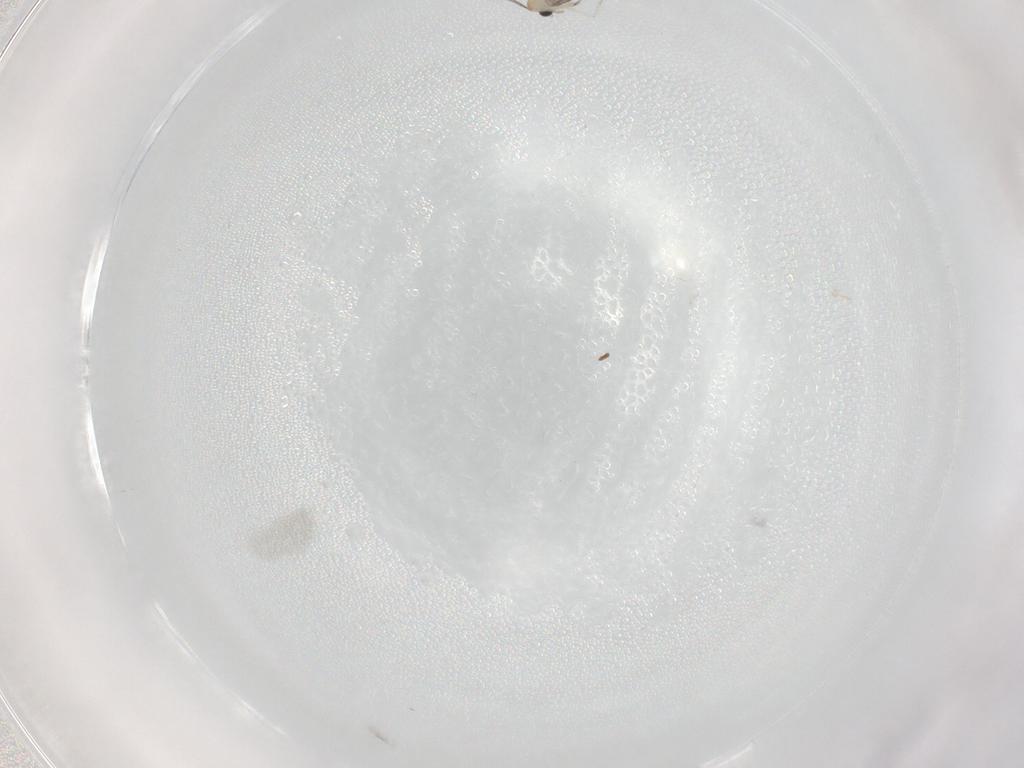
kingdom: Animalia
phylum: Arthropoda
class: Insecta
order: Diptera
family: Cecidomyiidae
